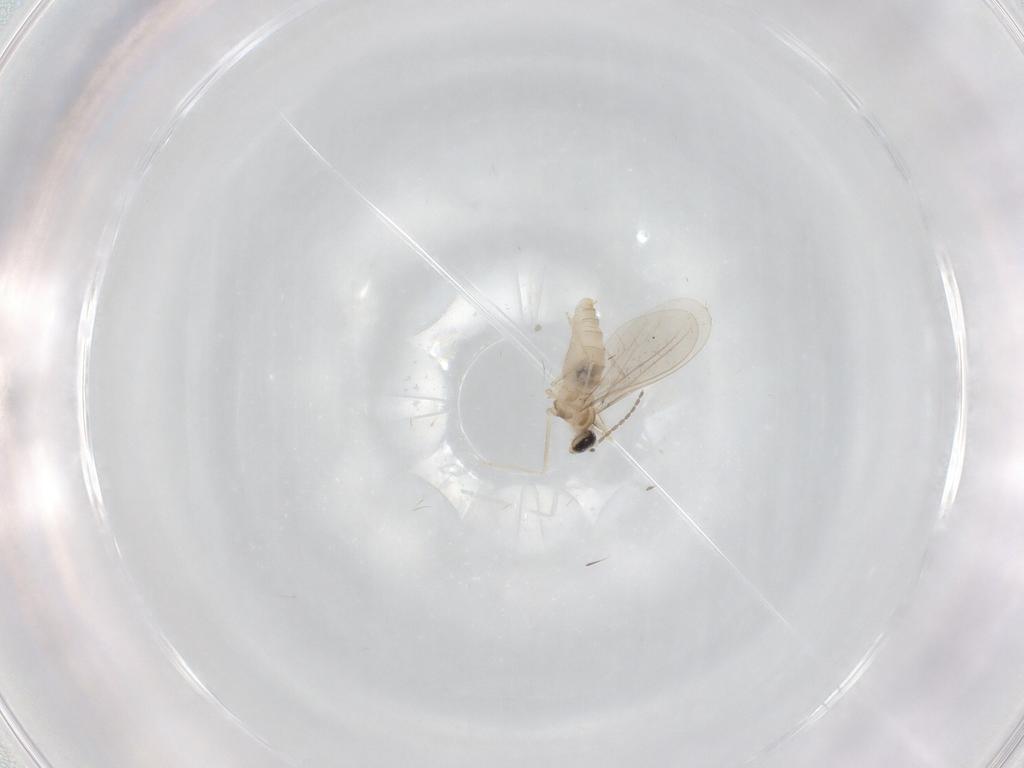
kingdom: Animalia
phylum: Arthropoda
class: Insecta
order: Diptera
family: Cecidomyiidae
